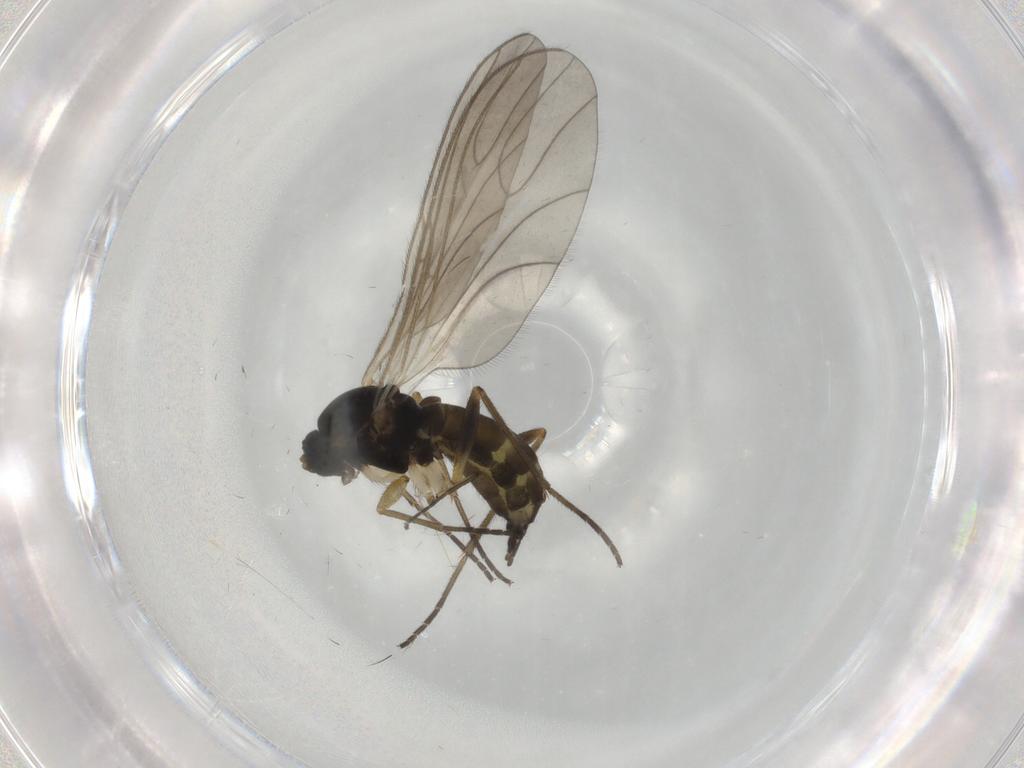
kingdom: Animalia
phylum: Arthropoda
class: Insecta
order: Diptera
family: Sciaridae
